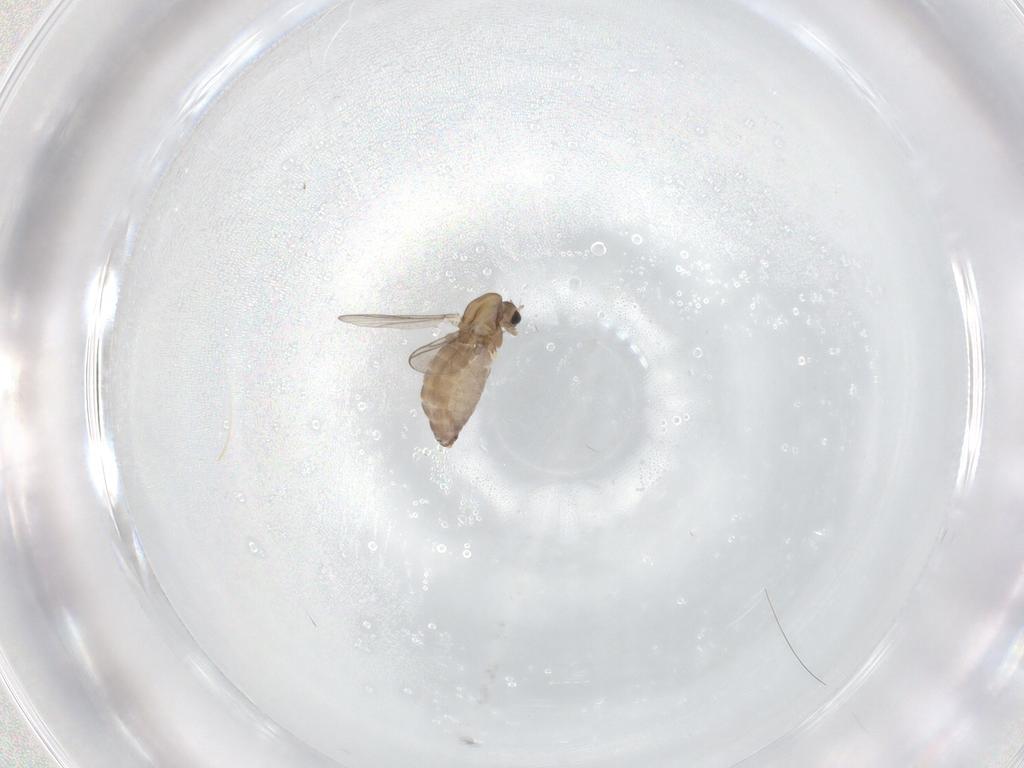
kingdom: Animalia
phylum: Arthropoda
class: Insecta
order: Diptera
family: Chironomidae
